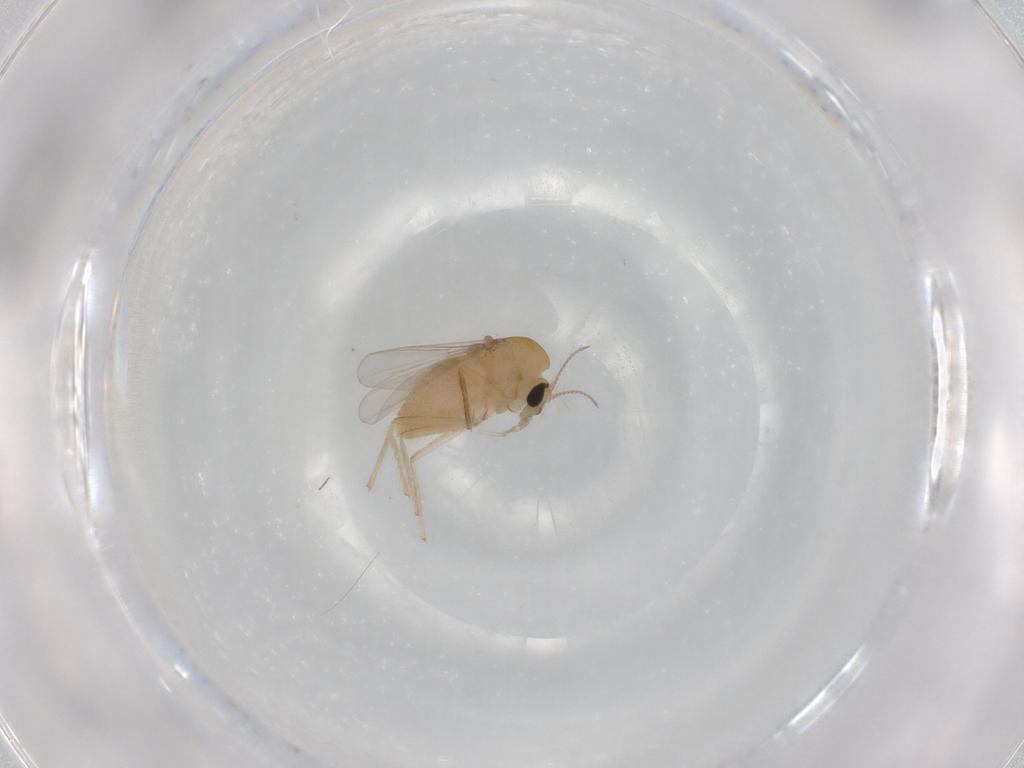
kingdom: Animalia
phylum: Arthropoda
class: Insecta
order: Diptera
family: Chironomidae
